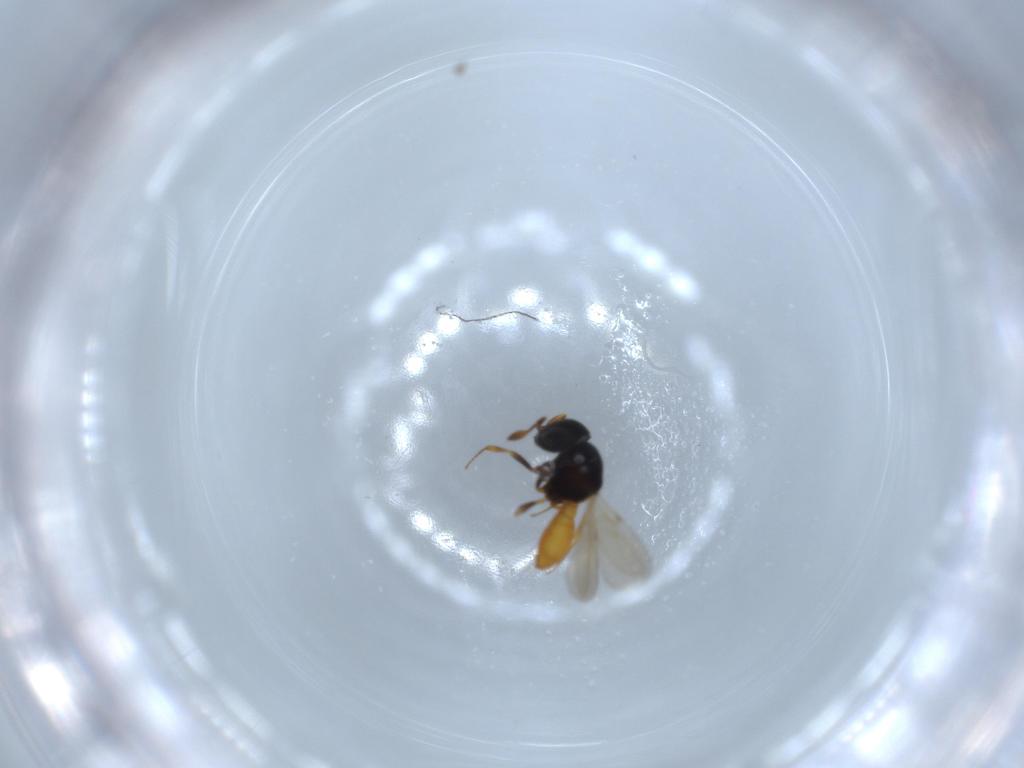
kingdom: Animalia
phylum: Arthropoda
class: Insecta
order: Hymenoptera
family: Scelionidae
